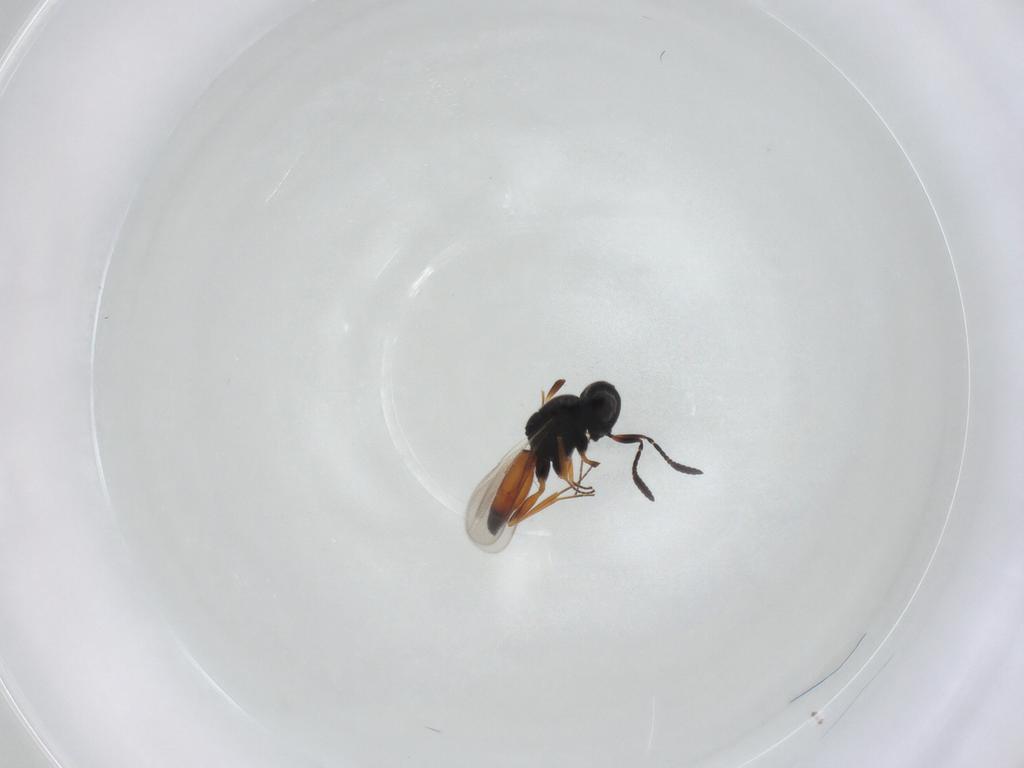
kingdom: Animalia
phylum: Arthropoda
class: Insecta
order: Hymenoptera
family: Scelionidae
